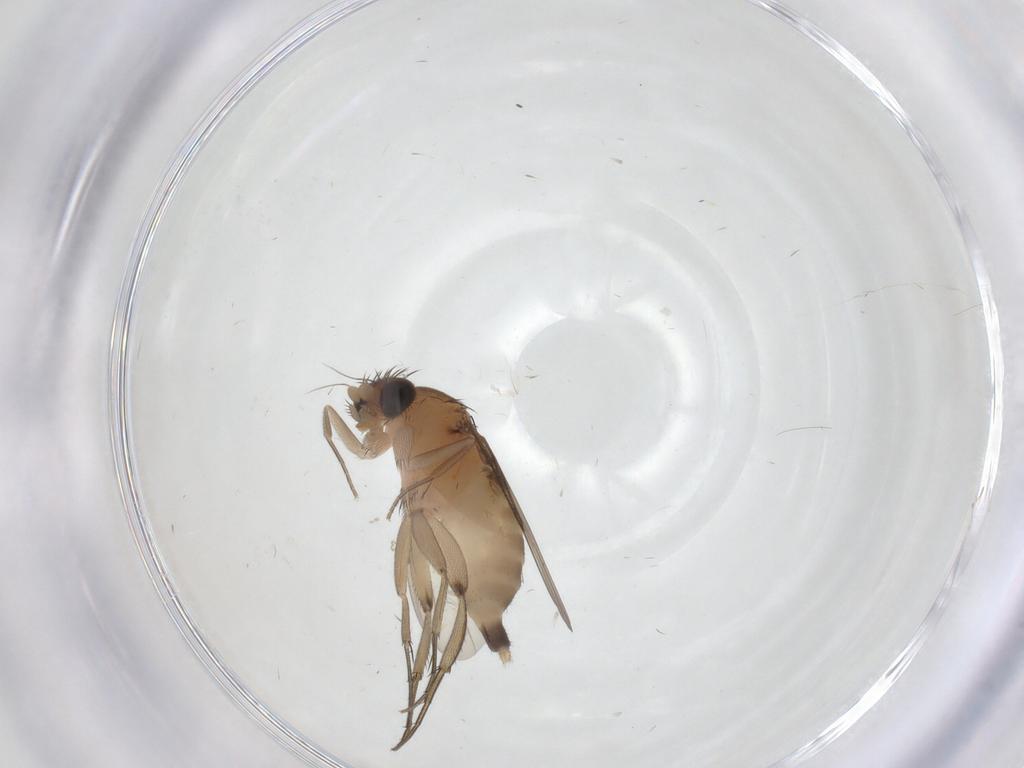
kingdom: Animalia
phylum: Arthropoda
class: Insecta
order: Diptera
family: Phoridae
